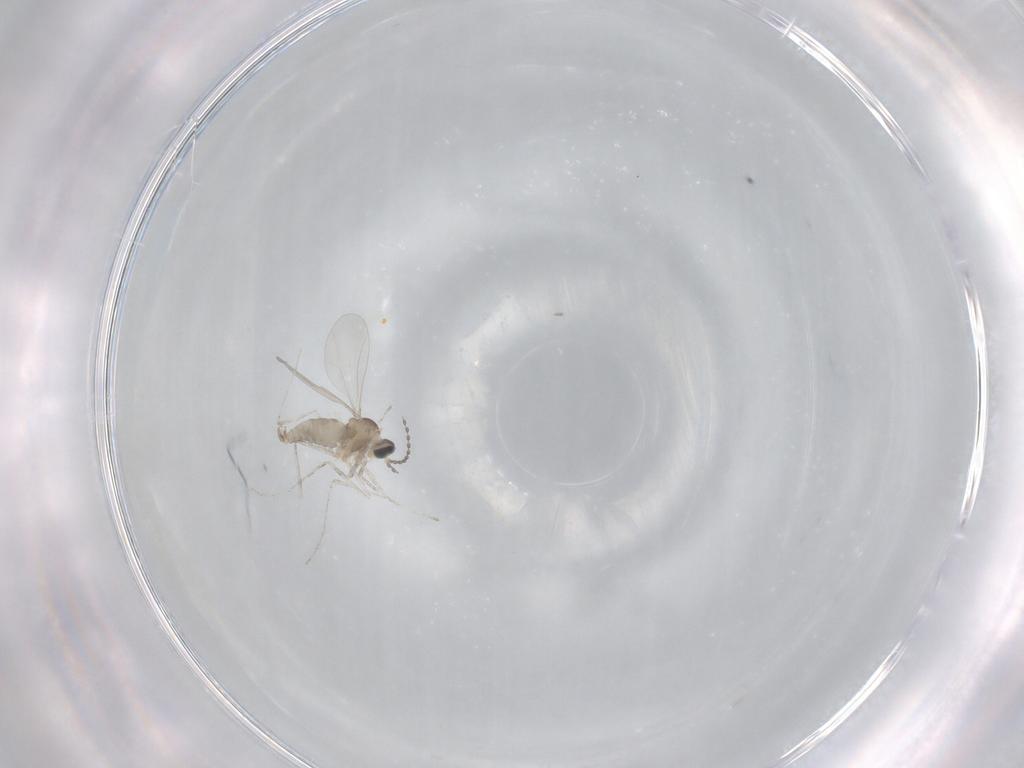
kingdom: Animalia
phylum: Arthropoda
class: Insecta
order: Diptera
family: Cecidomyiidae
